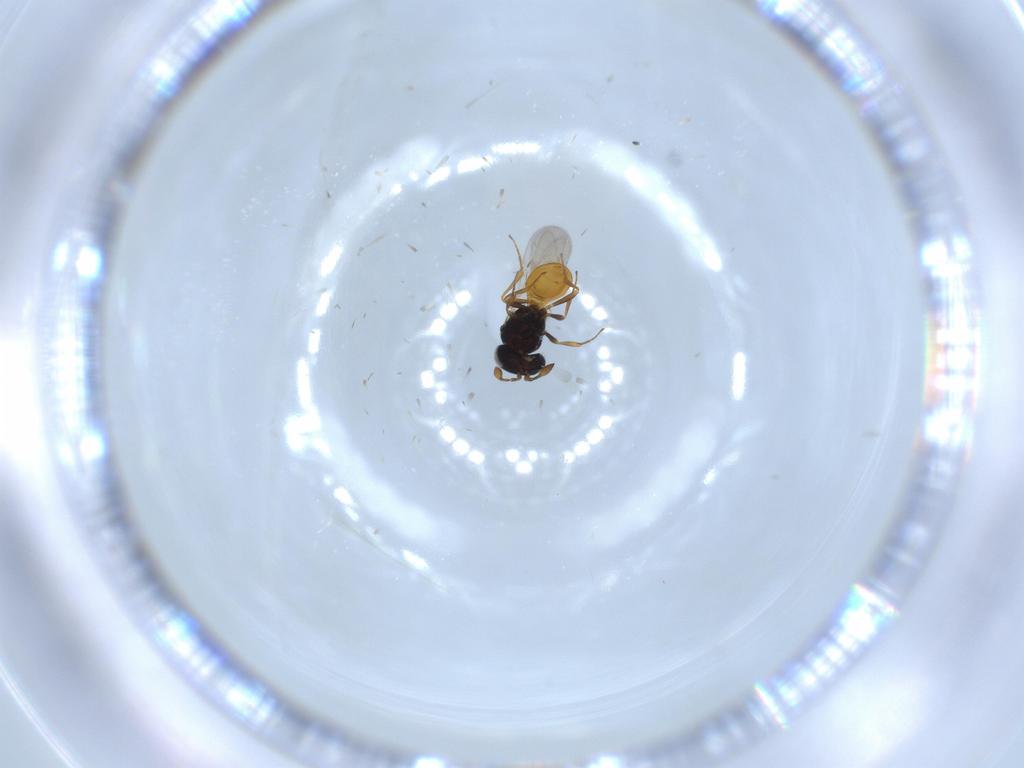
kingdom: Animalia
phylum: Arthropoda
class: Insecta
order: Hymenoptera
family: Scelionidae
